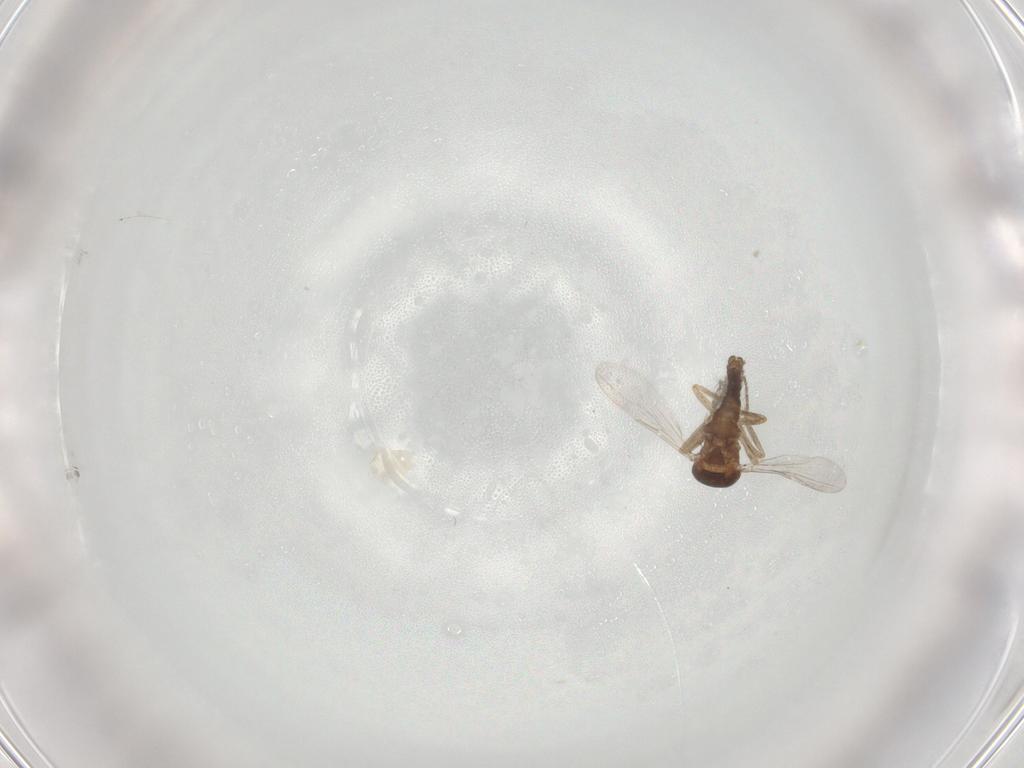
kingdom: Animalia
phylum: Arthropoda
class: Insecta
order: Diptera
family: Ceratopogonidae
